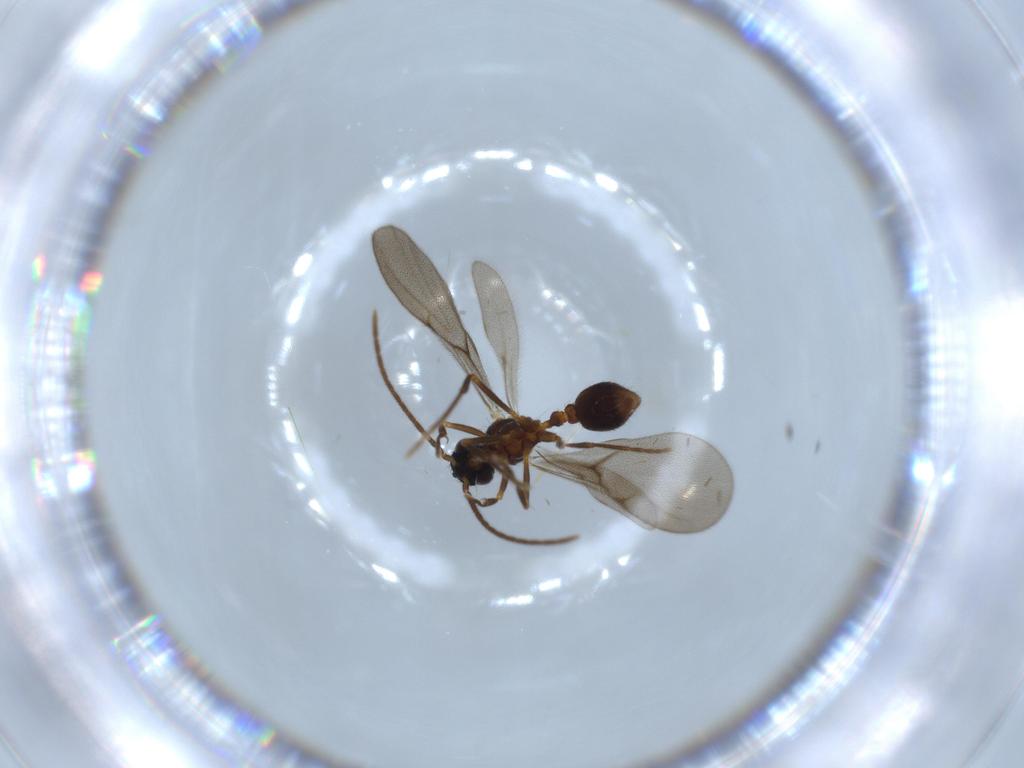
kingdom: Animalia
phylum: Arthropoda
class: Insecta
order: Hymenoptera
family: Formicidae
